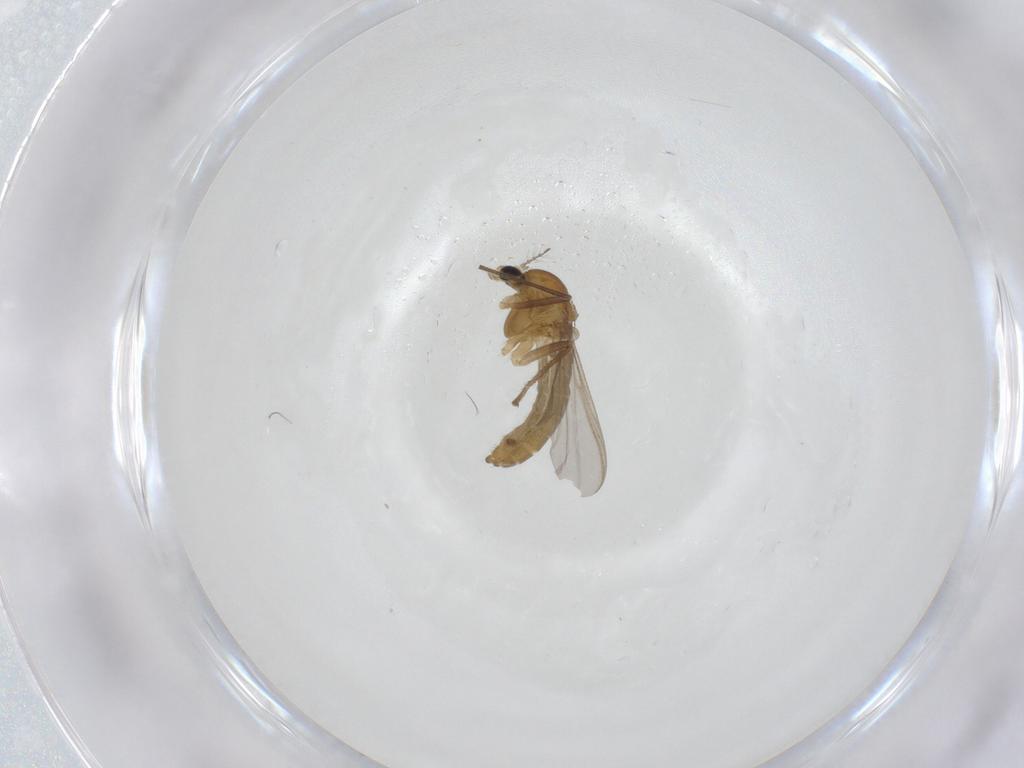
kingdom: Animalia
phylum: Arthropoda
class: Insecta
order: Diptera
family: Chironomidae
